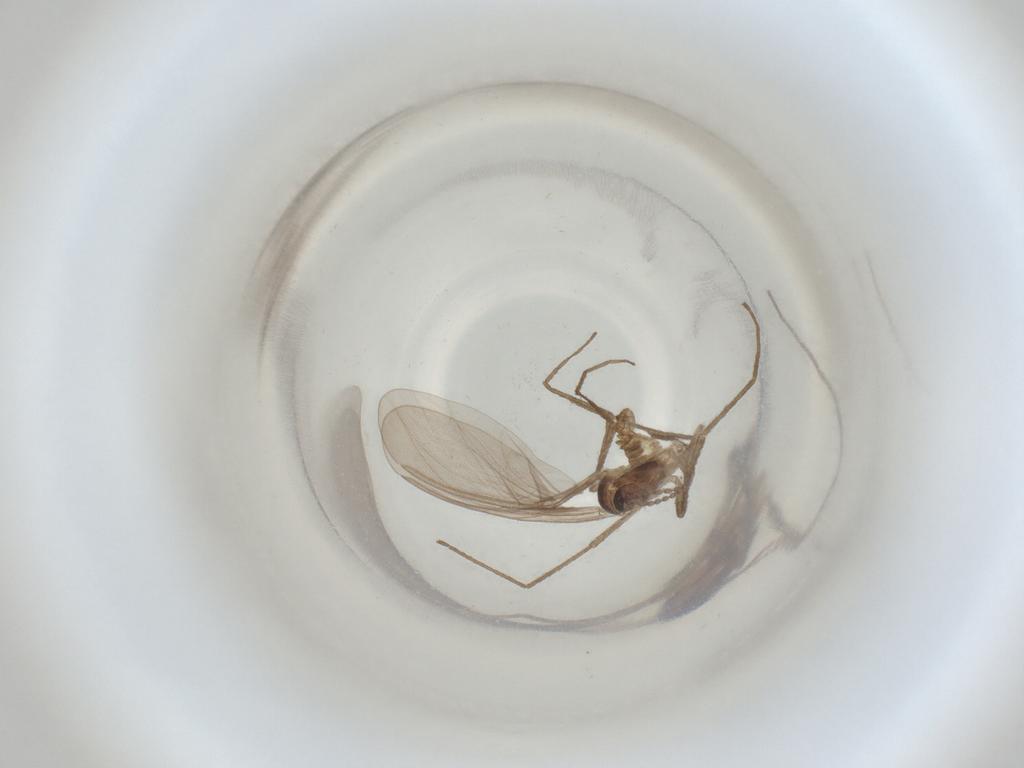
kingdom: Animalia
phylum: Arthropoda
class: Insecta
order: Diptera
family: Cecidomyiidae
